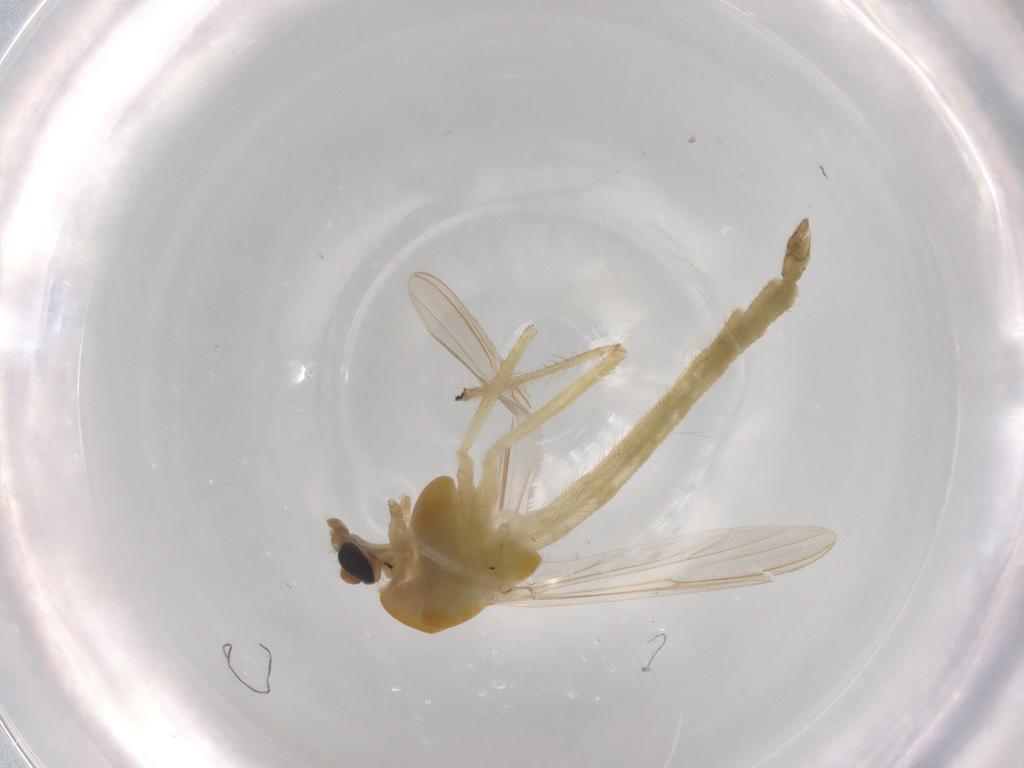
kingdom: Animalia
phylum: Arthropoda
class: Insecta
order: Diptera
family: Chironomidae
